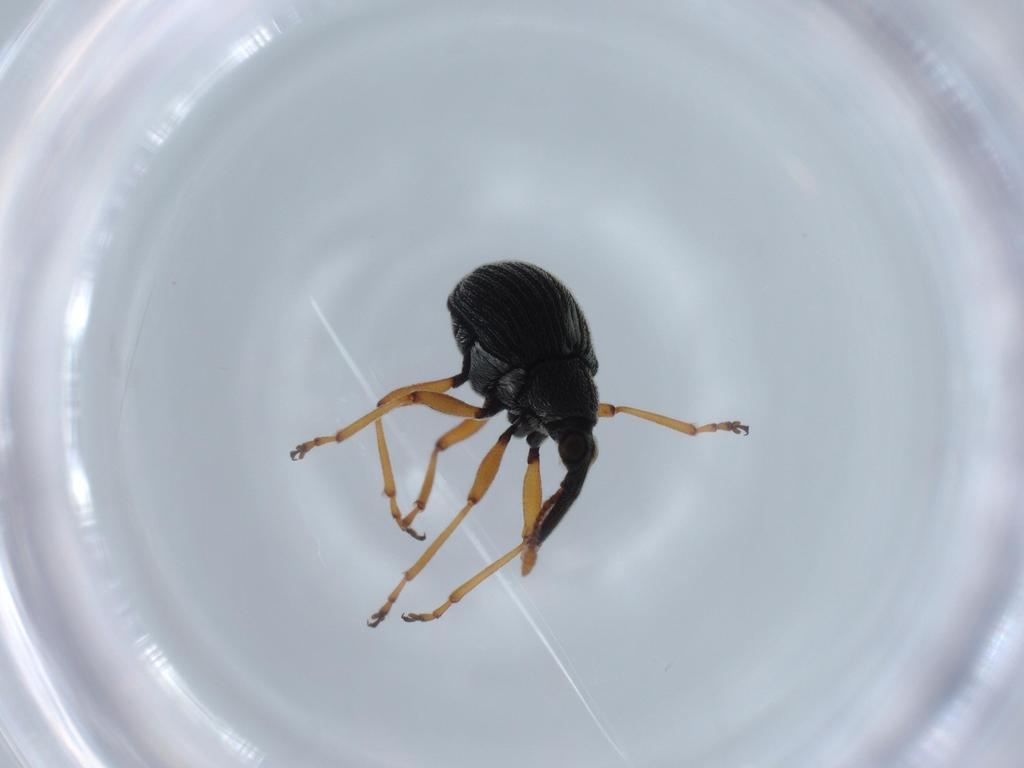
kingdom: Animalia
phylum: Arthropoda
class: Insecta
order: Coleoptera
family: Brentidae
